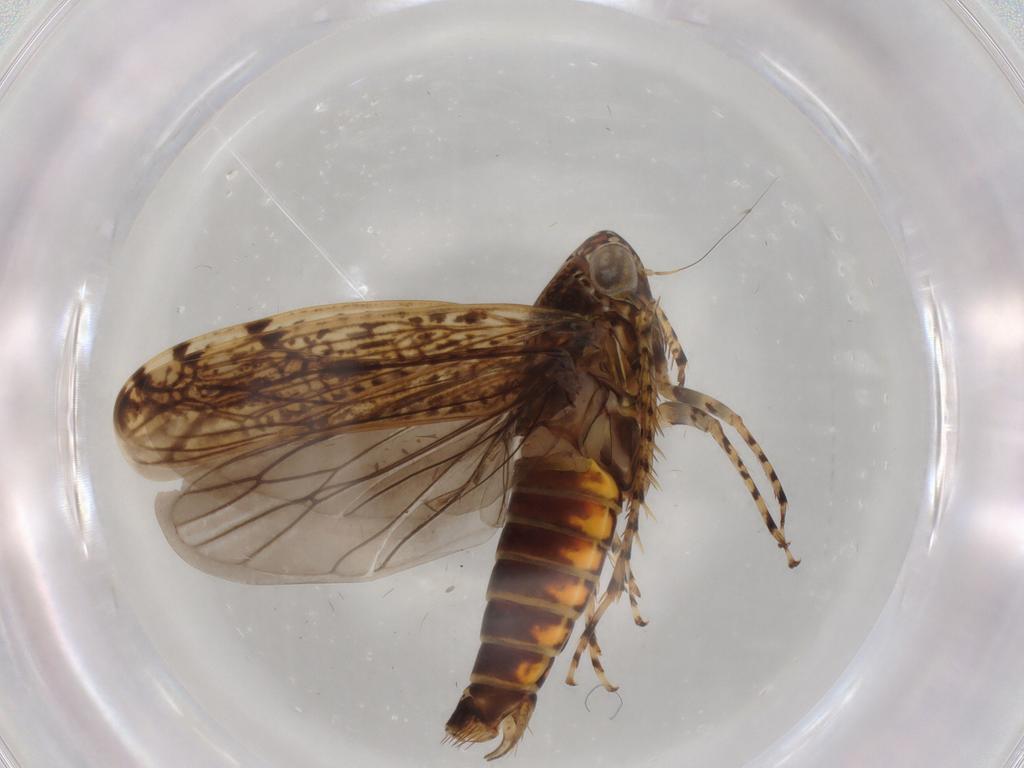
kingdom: Animalia
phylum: Arthropoda
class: Insecta
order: Hemiptera
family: Cicadellidae
